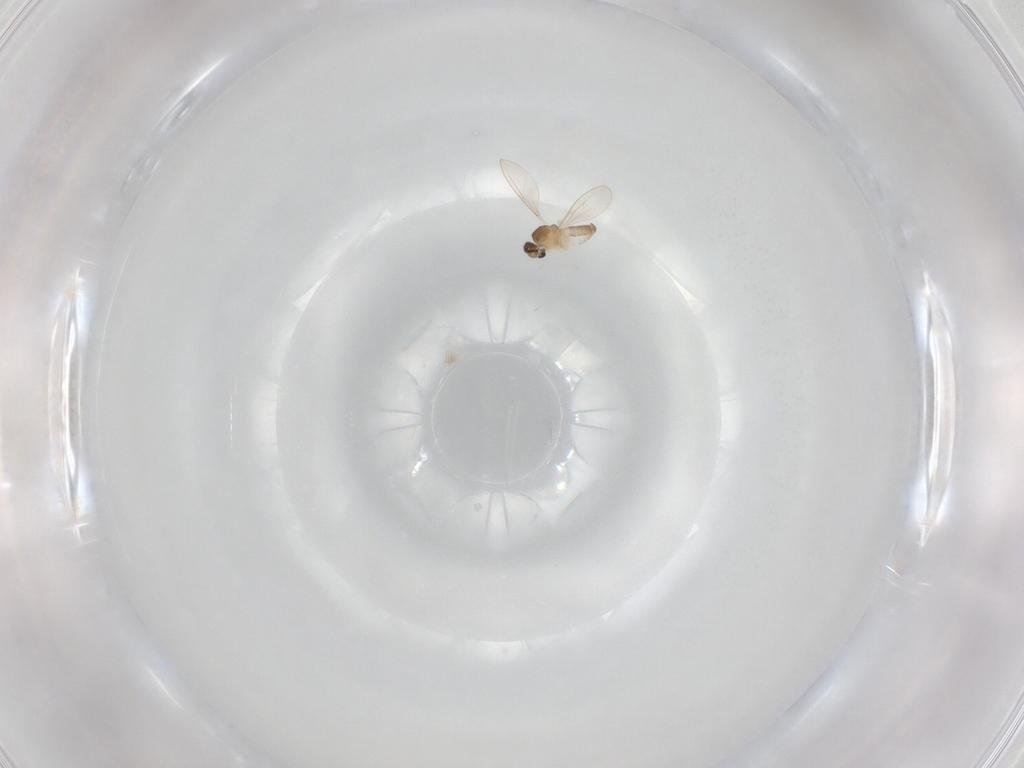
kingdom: Animalia
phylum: Arthropoda
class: Insecta
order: Diptera
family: Cecidomyiidae
